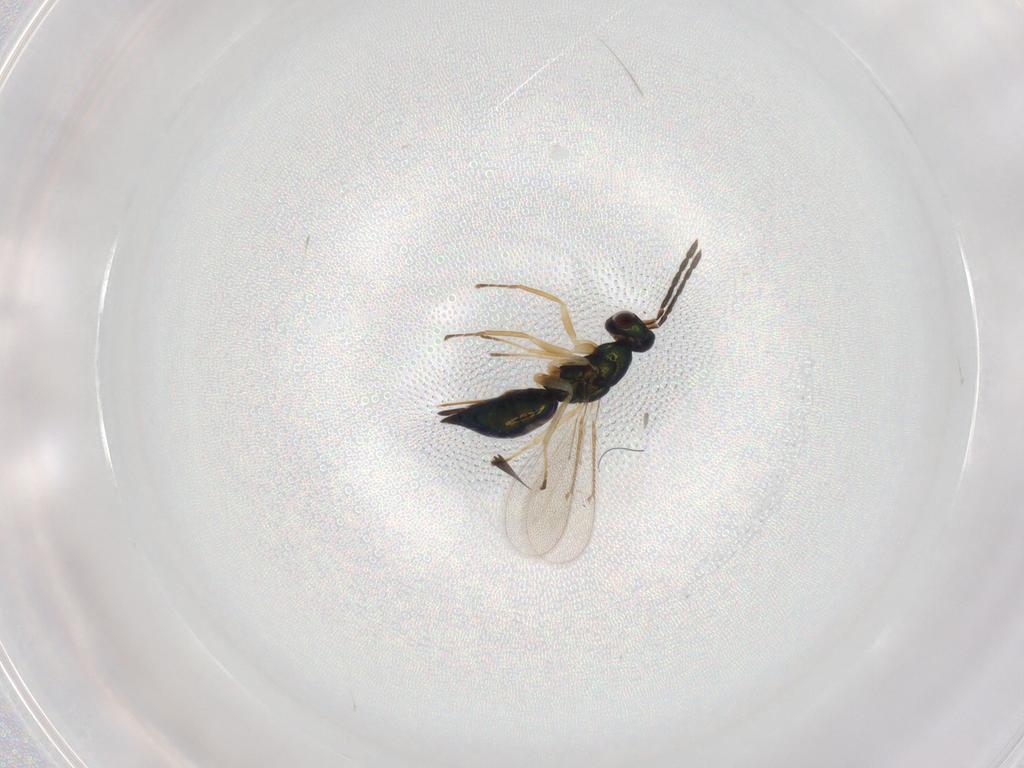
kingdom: Animalia
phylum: Arthropoda
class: Insecta
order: Hymenoptera
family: Eulophidae
